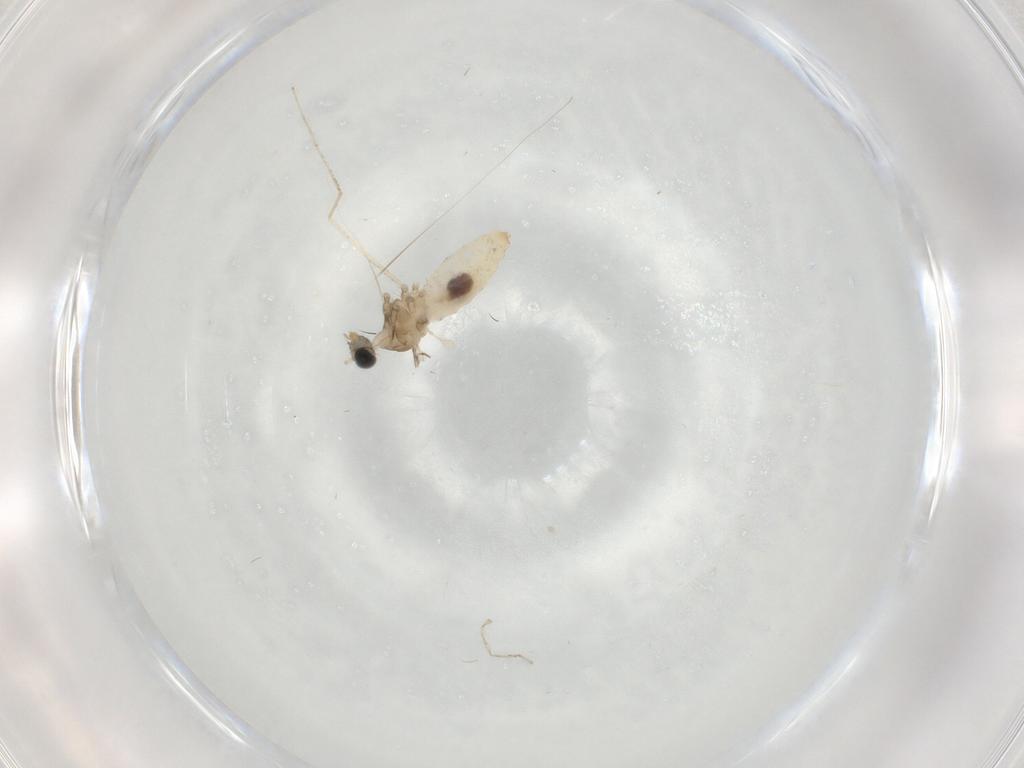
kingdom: Animalia
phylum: Arthropoda
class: Insecta
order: Diptera
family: Cecidomyiidae
